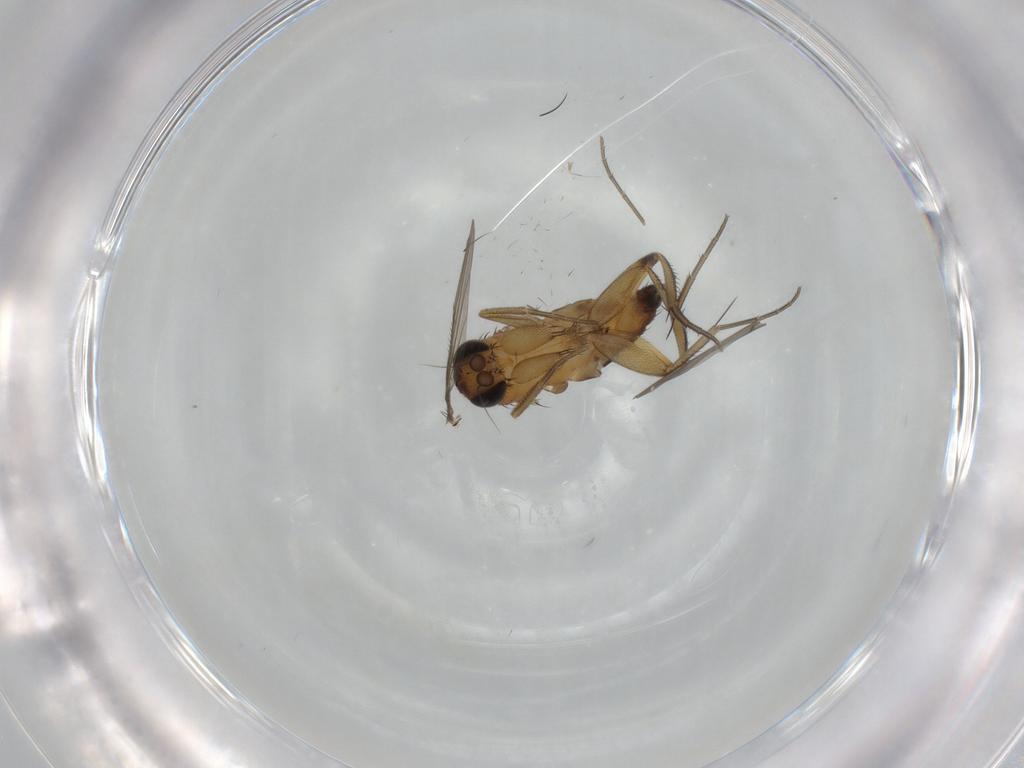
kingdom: Animalia
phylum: Arthropoda
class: Insecta
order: Diptera
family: Phoridae
